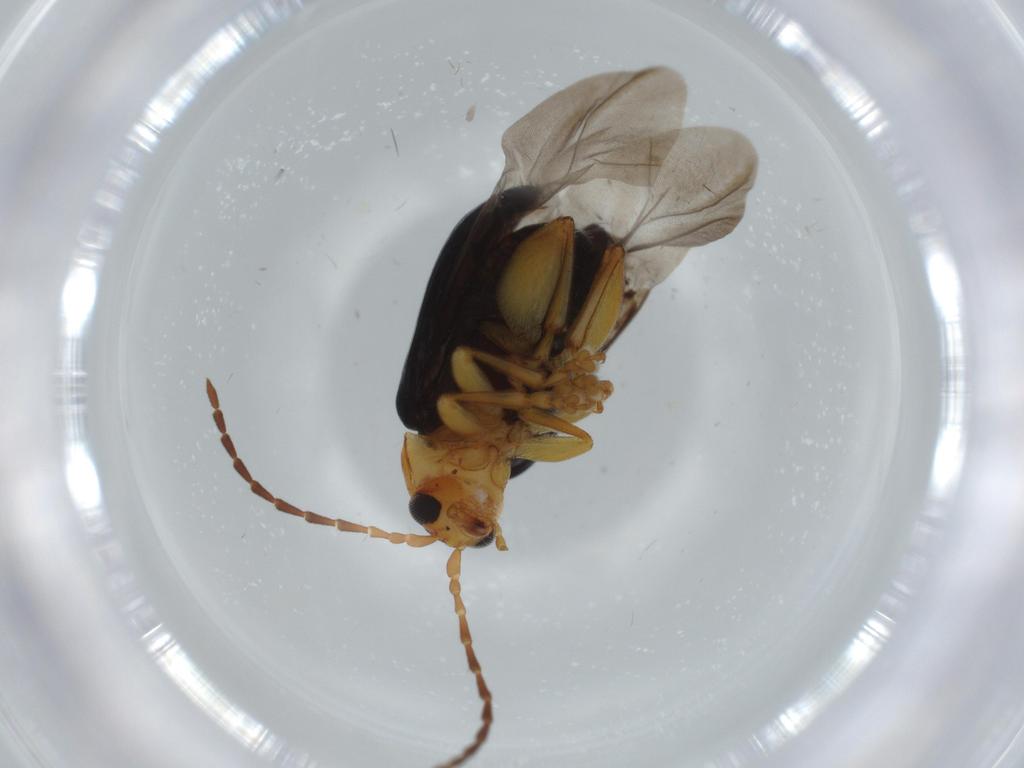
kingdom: Animalia
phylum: Arthropoda
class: Insecta
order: Coleoptera
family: Chrysomelidae
